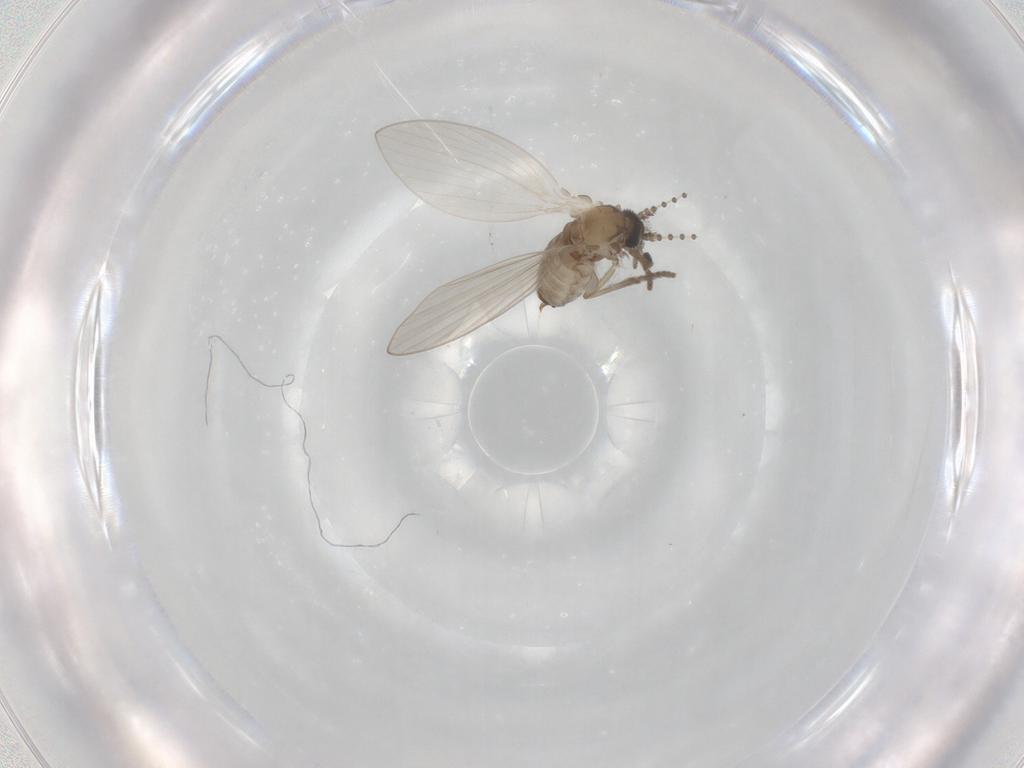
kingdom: Animalia
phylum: Arthropoda
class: Insecta
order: Diptera
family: Psychodidae
